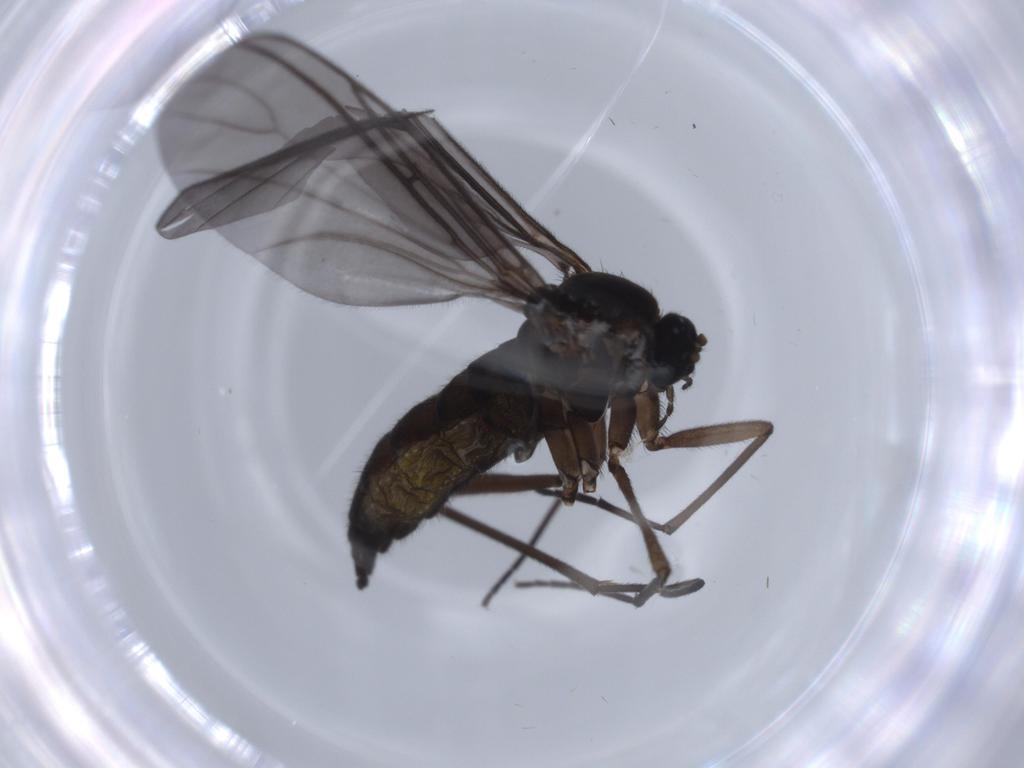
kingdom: Animalia
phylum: Arthropoda
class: Insecta
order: Diptera
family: Sciaridae
